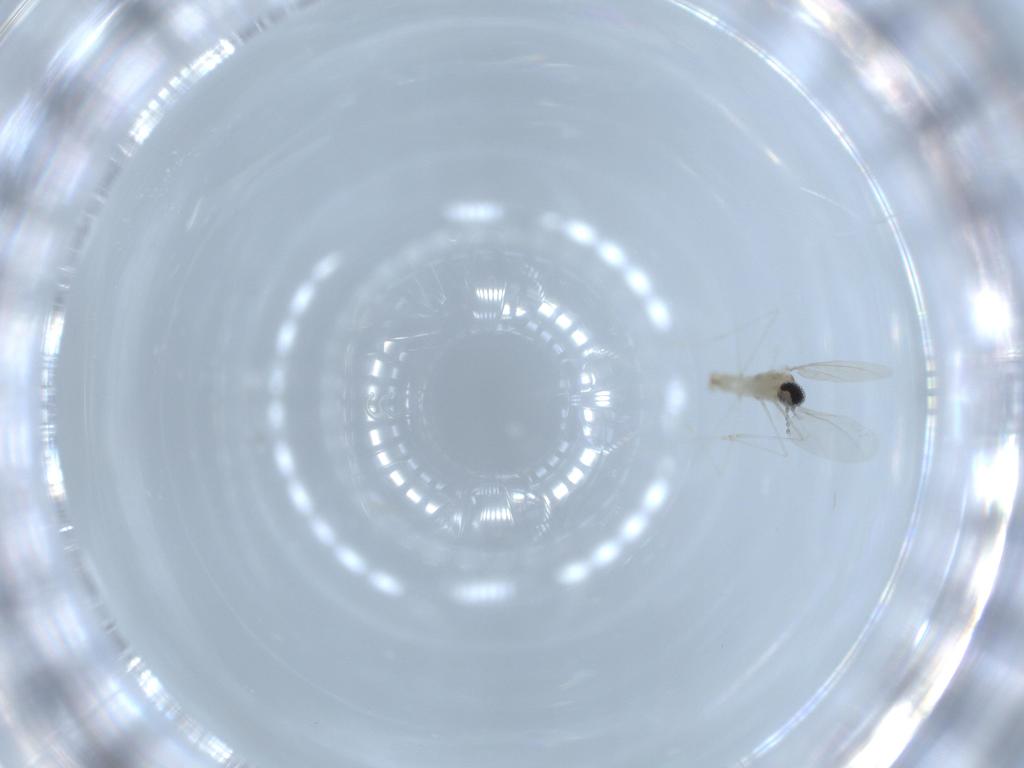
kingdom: Animalia
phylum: Arthropoda
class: Insecta
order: Diptera
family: Cecidomyiidae
